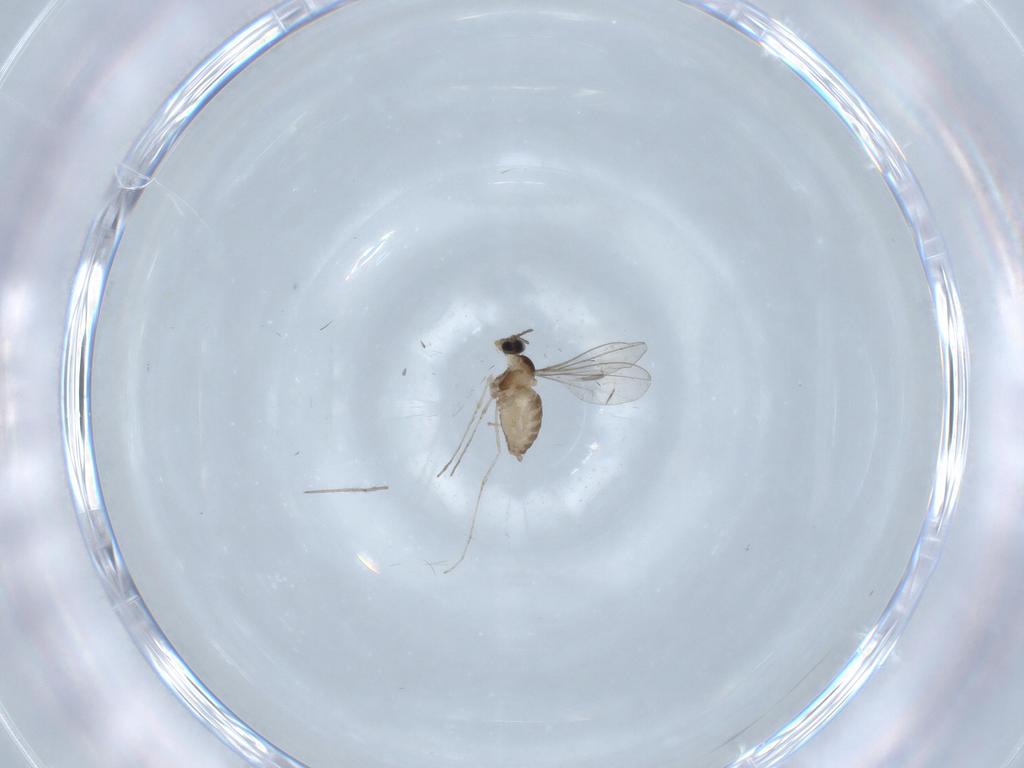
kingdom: Animalia
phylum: Arthropoda
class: Insecta
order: Diptera
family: Cecidomyiidae
